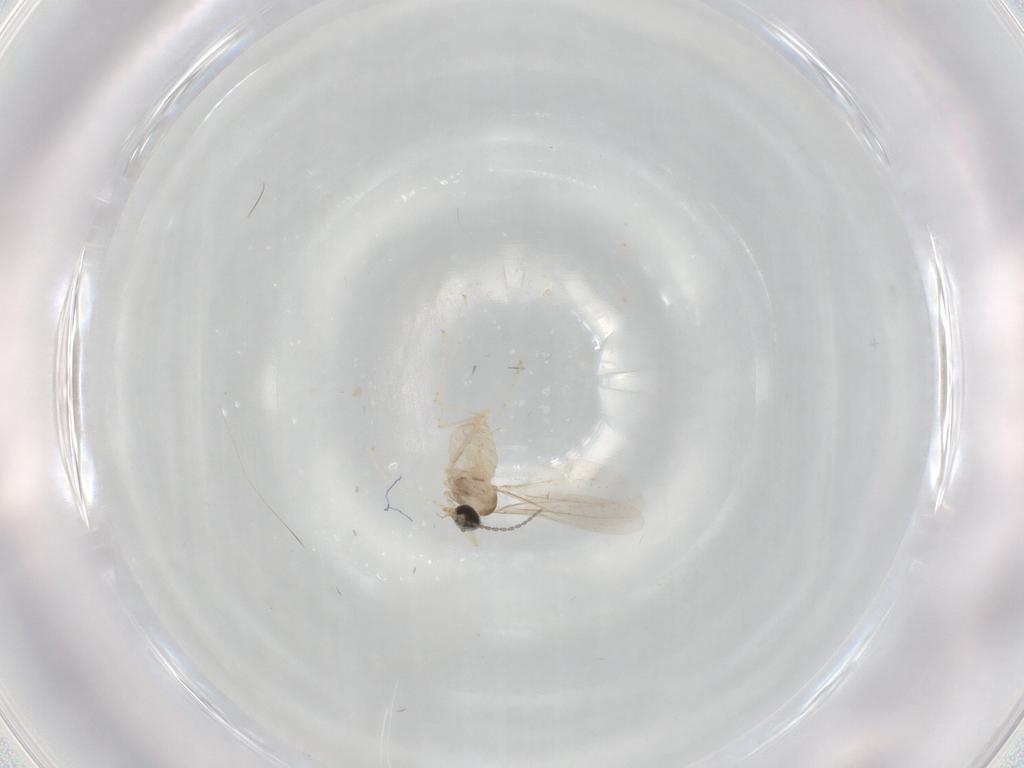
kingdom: Animalia
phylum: Arthropoda
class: Insecta
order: Diptera
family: Cecidomyiidae
